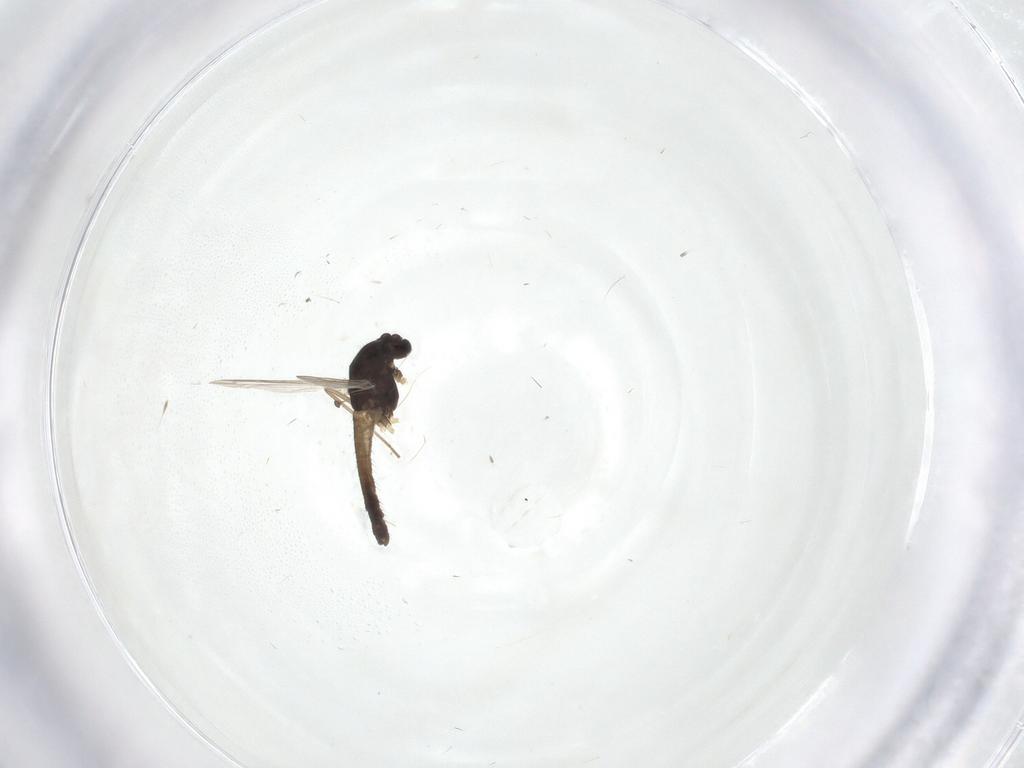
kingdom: Animalia
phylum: Arthropoda
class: Insecta
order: Diptera
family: Chironomidae
